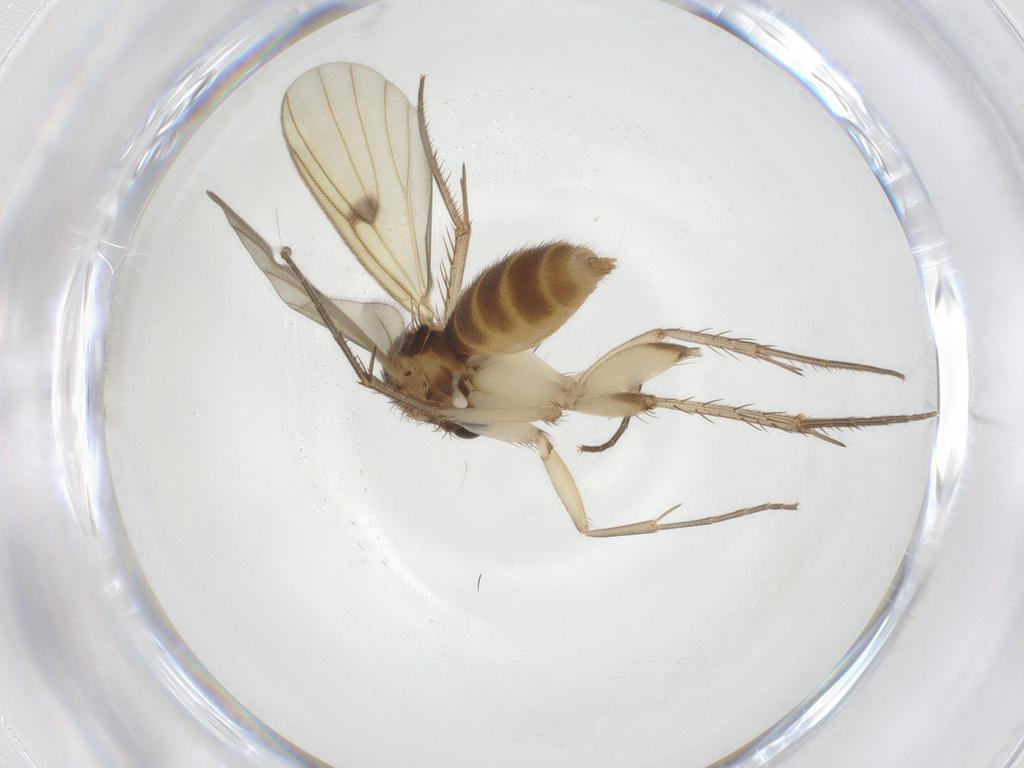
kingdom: Animalia
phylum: Arthropoda
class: Insecta
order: Diptera
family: Mycetophilidae
